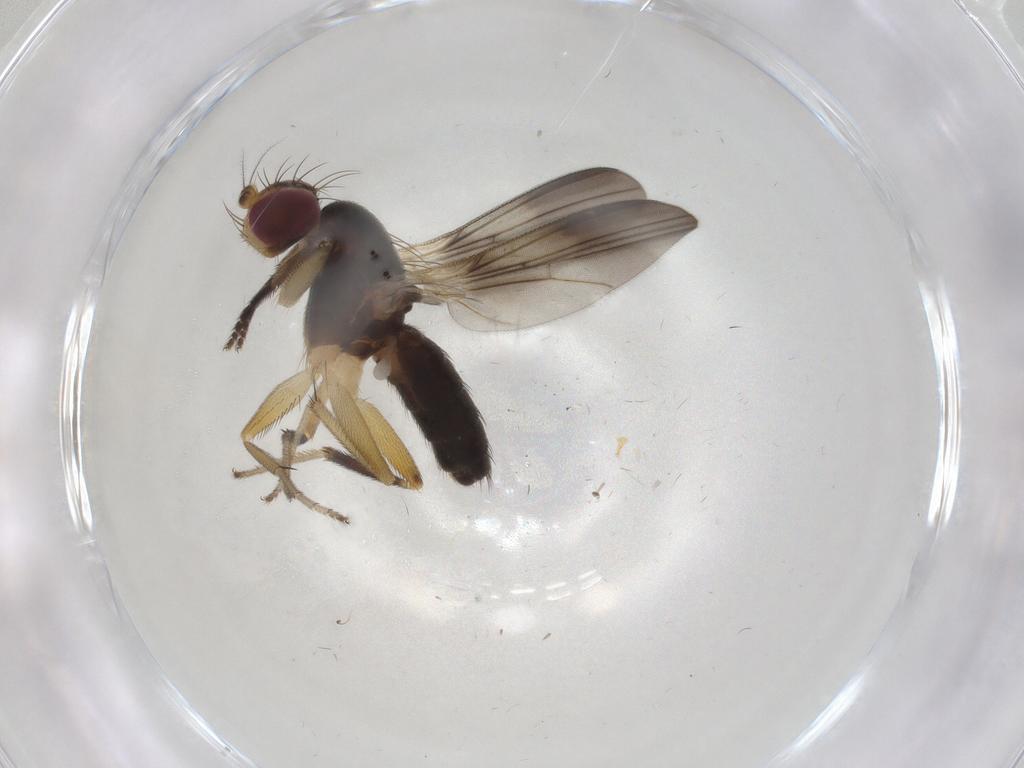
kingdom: Animalia
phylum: Arthropoda
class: Insecta
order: Diptera
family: Clusiidae
